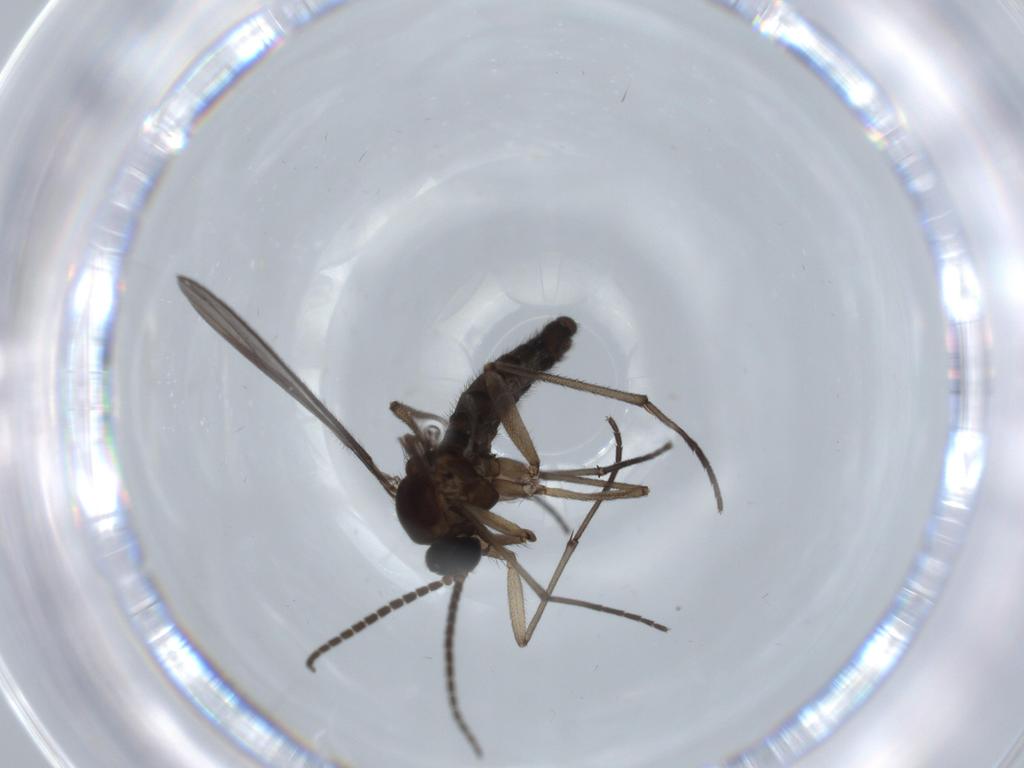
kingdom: Animalia
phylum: Arthropoda
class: Insecta
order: Diptera
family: Sciaridae
